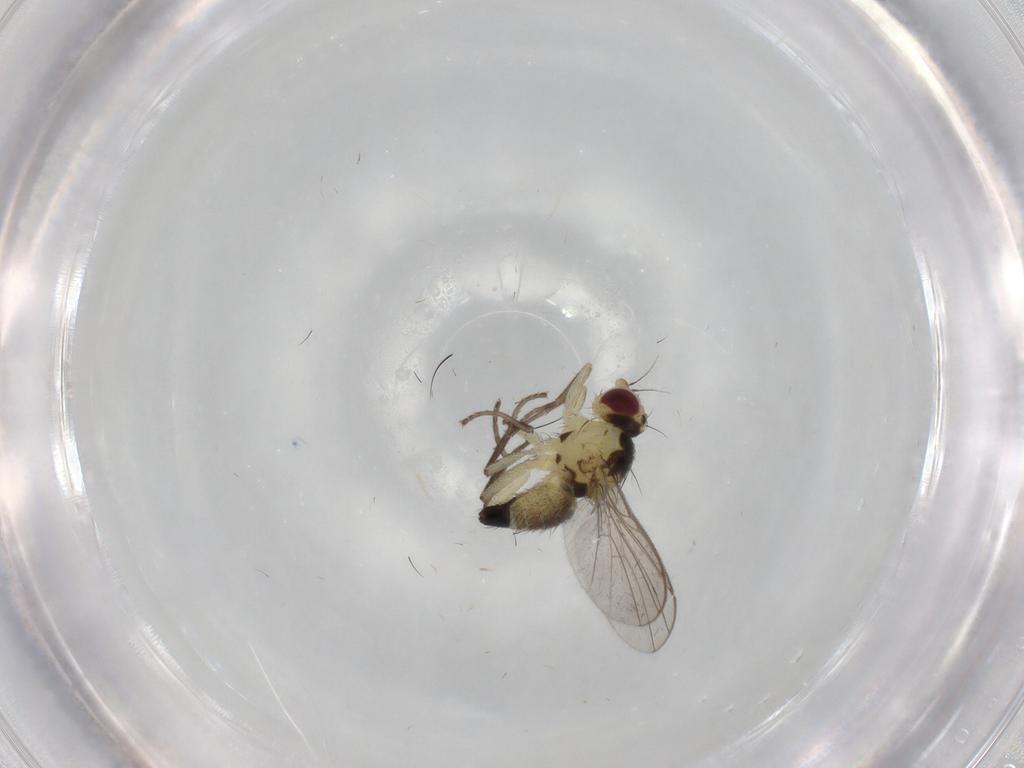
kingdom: Animalia
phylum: Arthropoda
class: Insecta
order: Diptera
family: Agromyzidae
